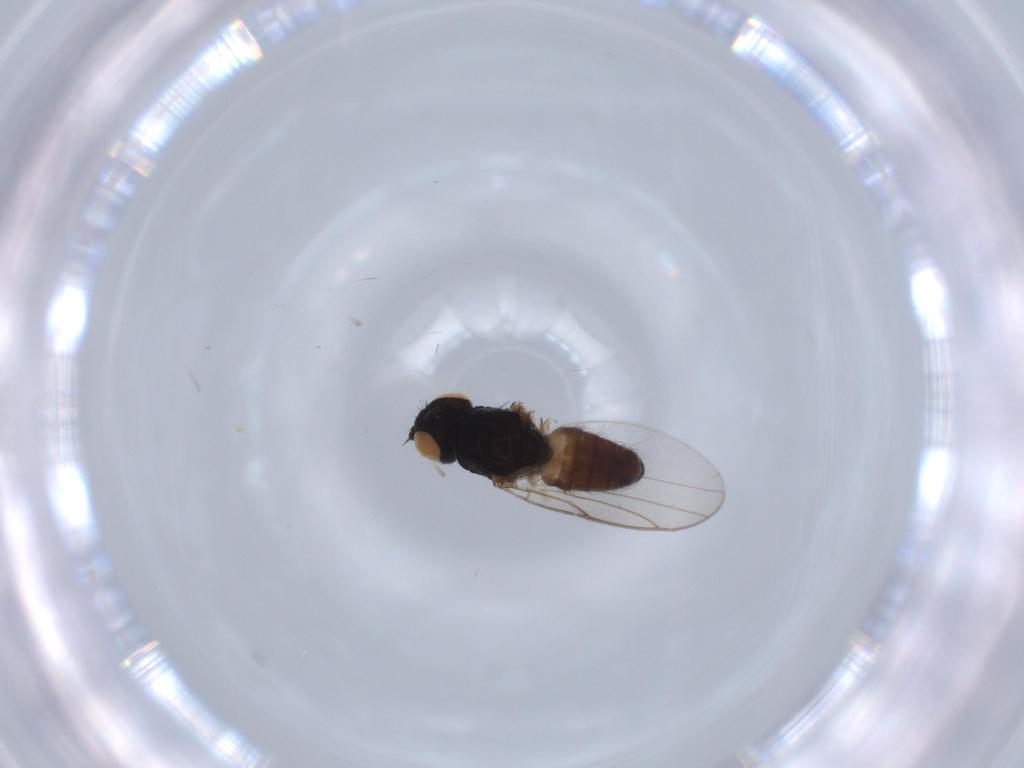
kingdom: Animalia
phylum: Arthropoda
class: Insecta
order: Diptera
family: Chloropidae
